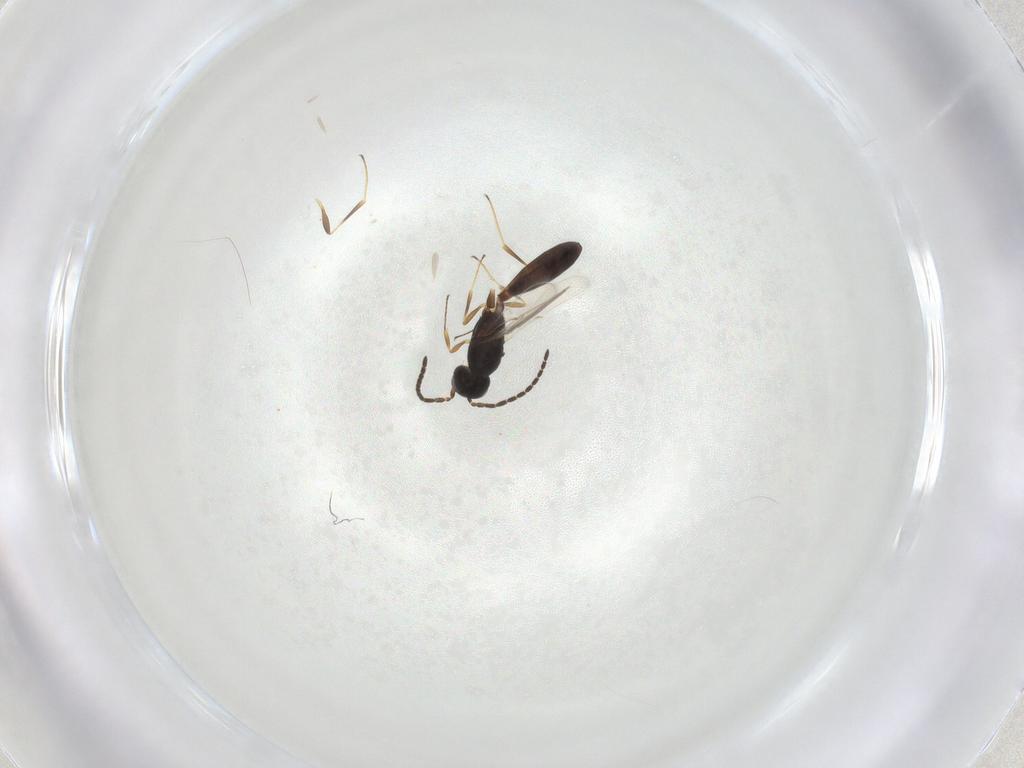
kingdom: Animalia
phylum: Arthropoda
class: Insecta
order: Hymenoptera
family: Scelionidae
